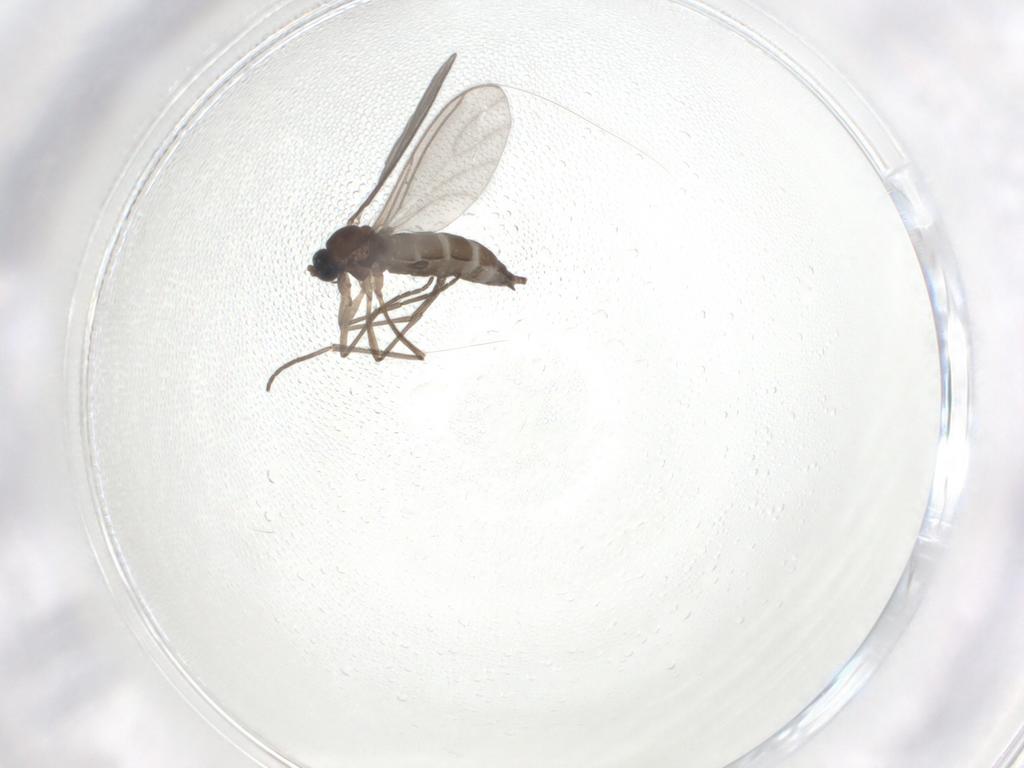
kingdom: Animalia
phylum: Arthropoda
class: Insecta
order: Diptera
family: Sciaridae
